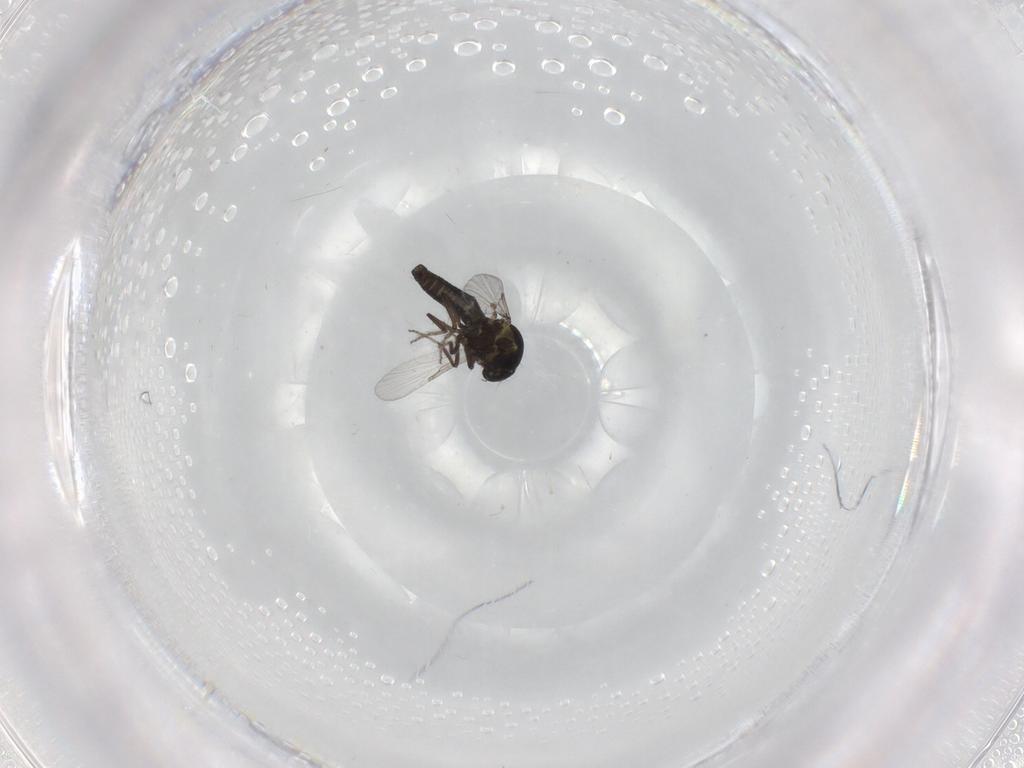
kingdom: Animalia
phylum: Arthropoda
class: Insecta
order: Diptera
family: Ceratopogonidae
